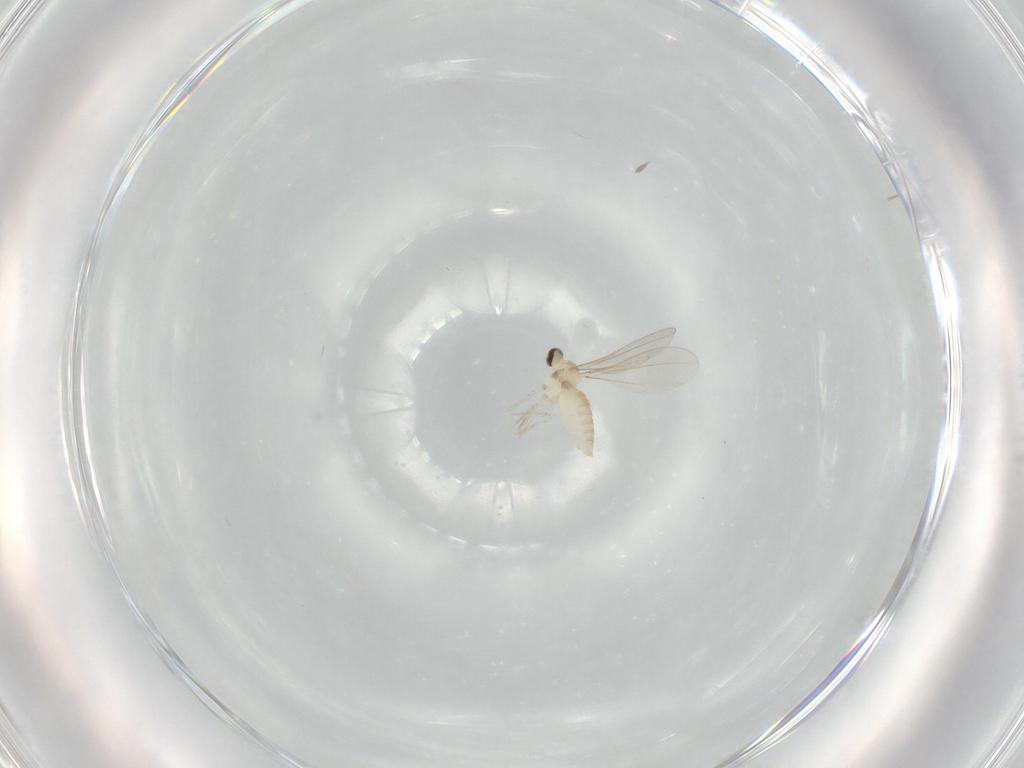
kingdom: Animalia
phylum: Arthropoda
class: Insecta
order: Diptera
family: Cecidomyiidae
